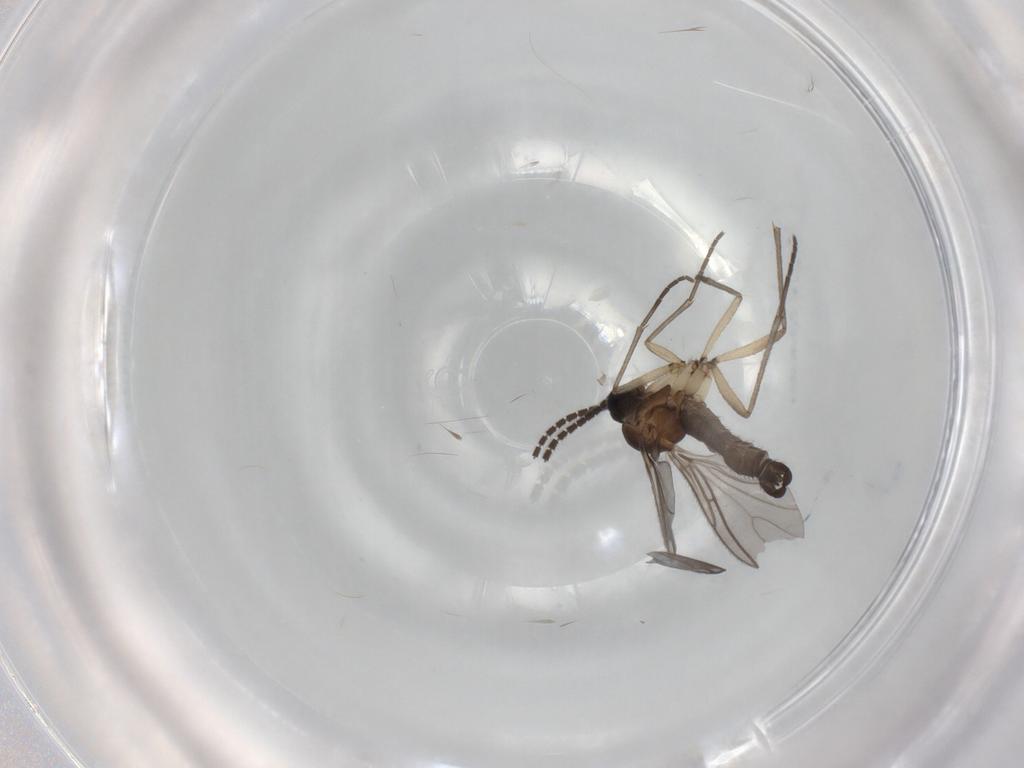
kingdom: Animalia
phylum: Arthropoda
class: Insecta
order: Diptera
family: Sciaridae
